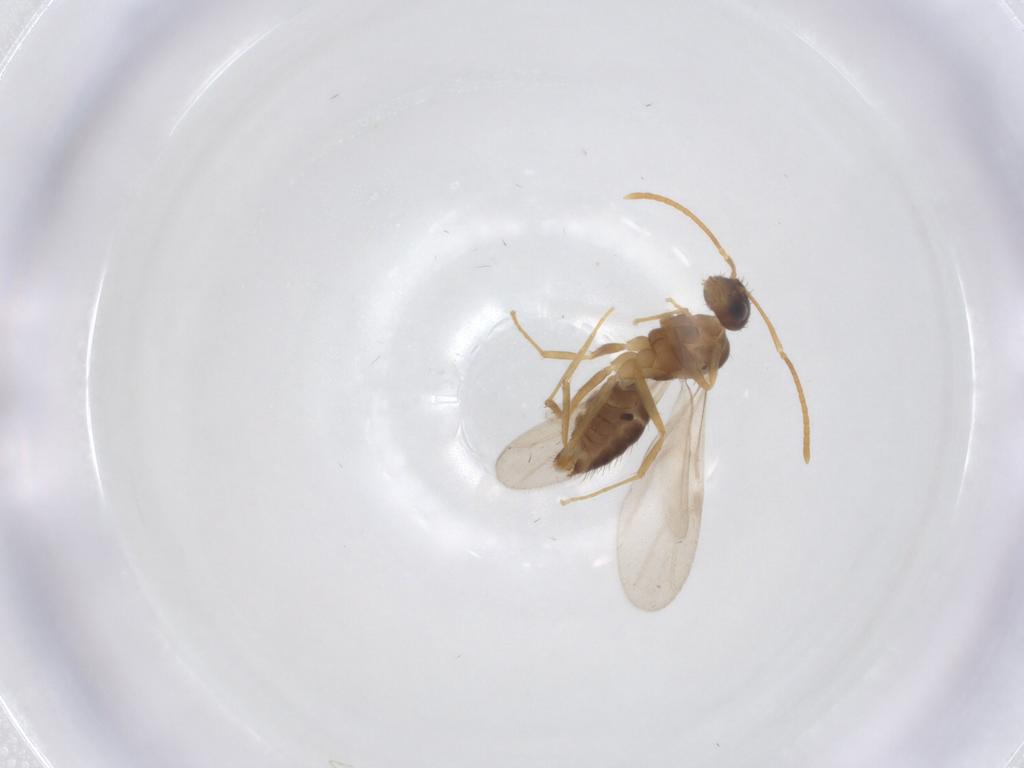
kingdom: Animalia
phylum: Arthropoda
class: Insecta
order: Hymenoptera
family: Formicidae
